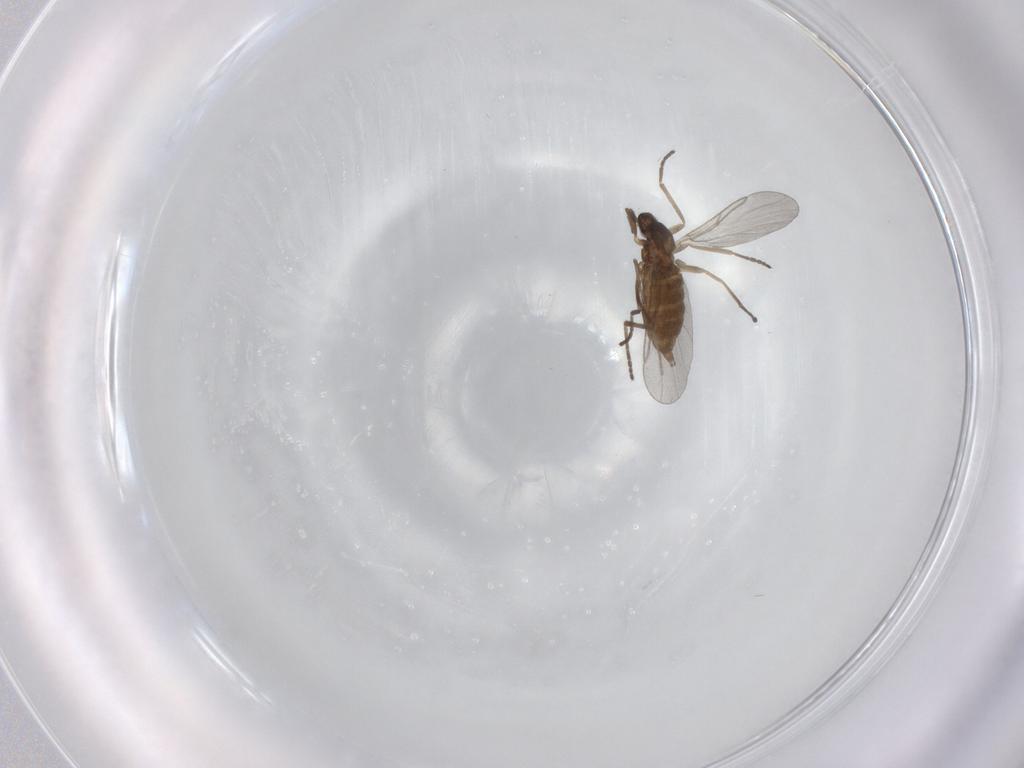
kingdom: Animalia
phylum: Arthropoda
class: Insecta
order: Diptera
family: Cecidomyiidae
